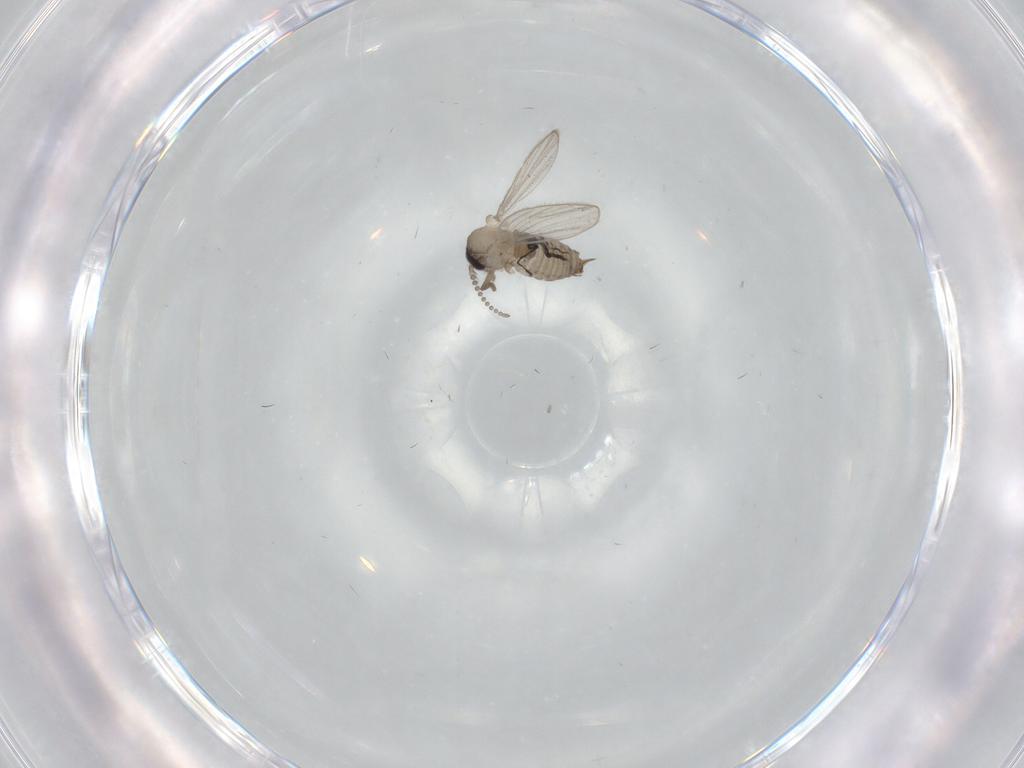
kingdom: Animalia
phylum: Arthropoda
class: Insecta
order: Diptera
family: Psychodidae
